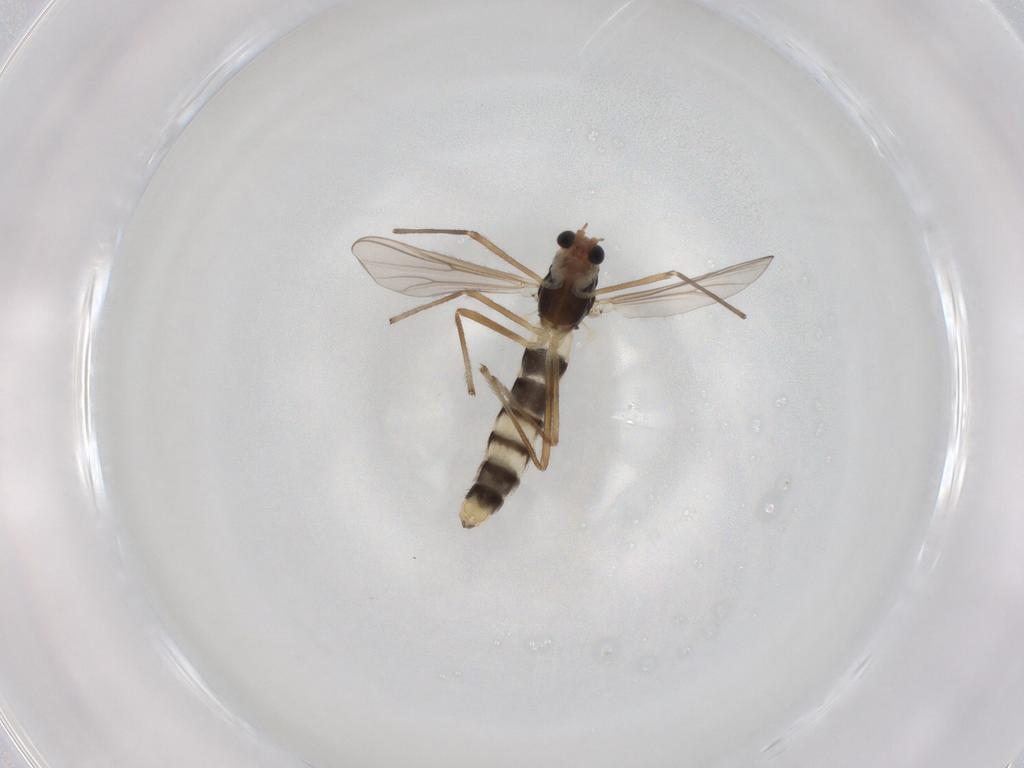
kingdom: Animalia
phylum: Arthropoda
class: Insecta
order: Diptera
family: Chironomidae
